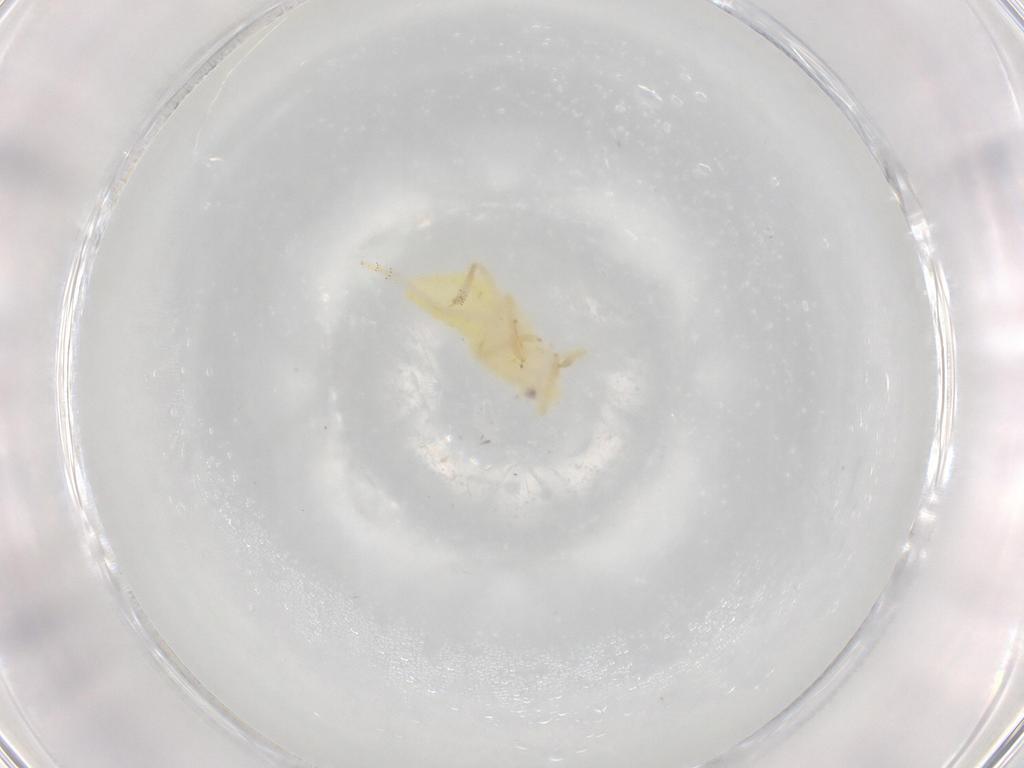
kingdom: Animalia
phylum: Arthropoda
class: Insecta
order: Hemiptera
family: Fulgoroidea_incertae_sedis
